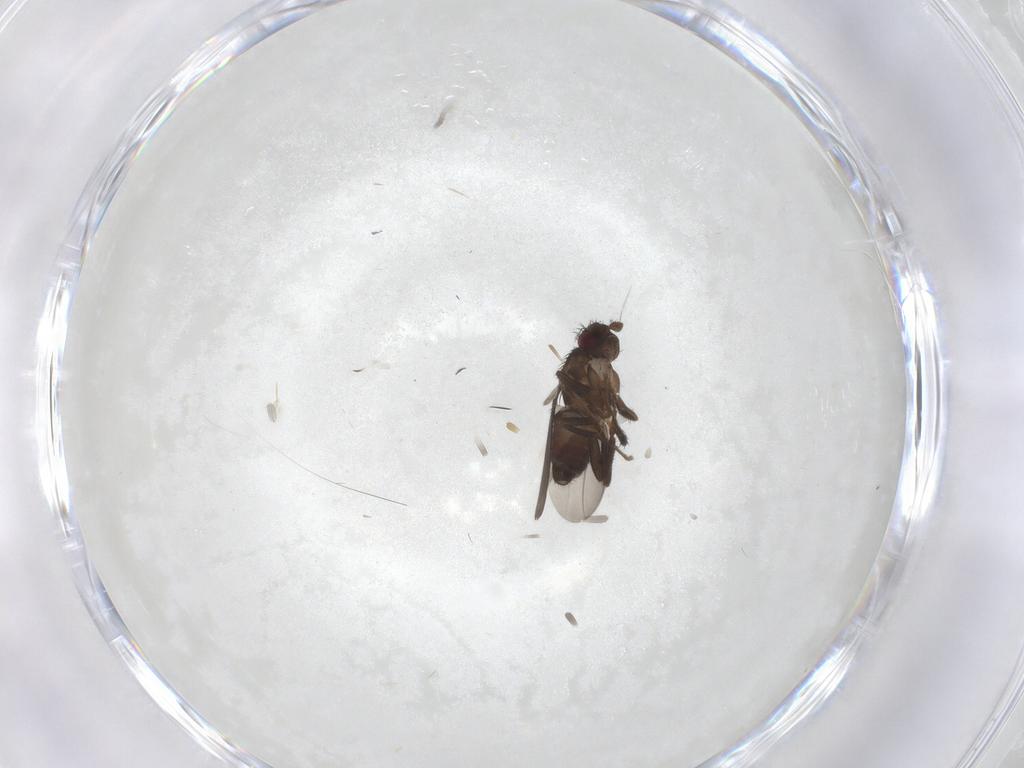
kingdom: Animalia
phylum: Arthropoda
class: Insecta
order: Diptera
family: Sphaeroceridae
